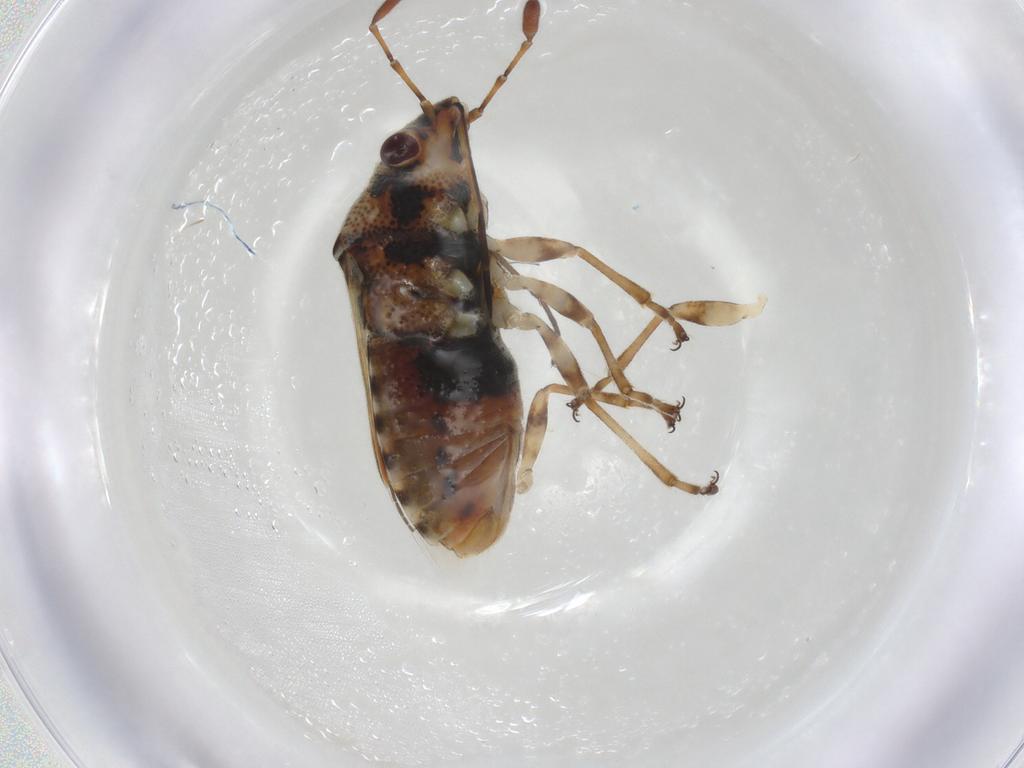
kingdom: Animalia
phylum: Arthropoda
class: Insecta
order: Hemiptera
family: Lygaeidae
